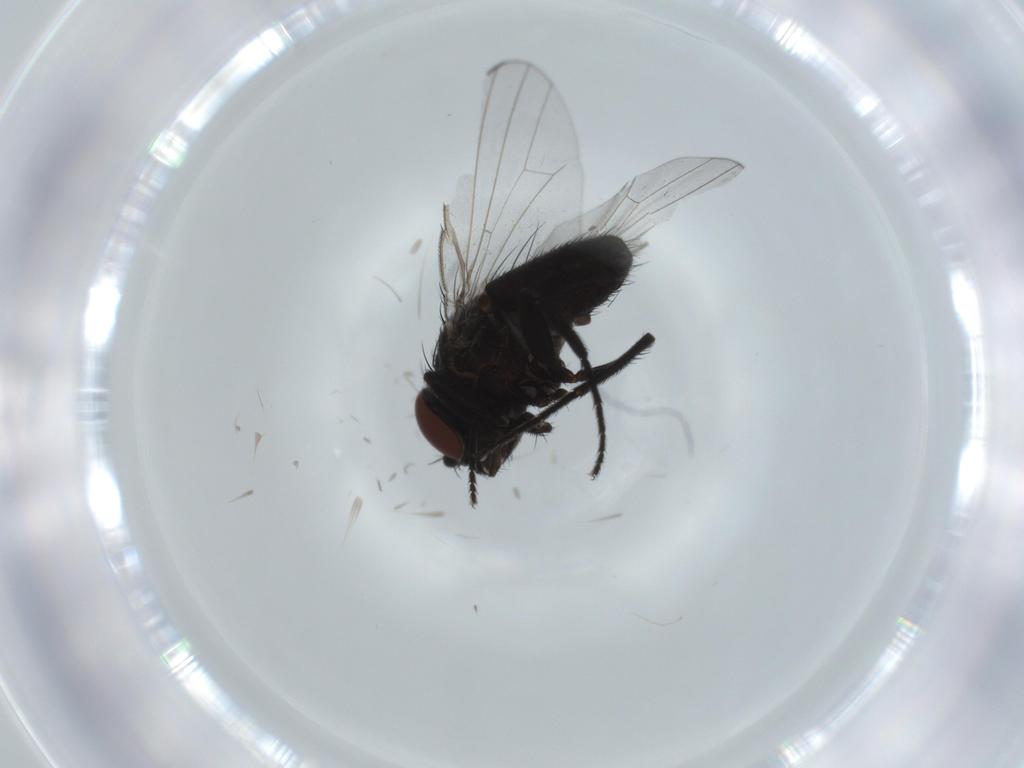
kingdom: Animalia
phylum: Arthropoda
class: Insecta
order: Diptera
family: Milichiidae
